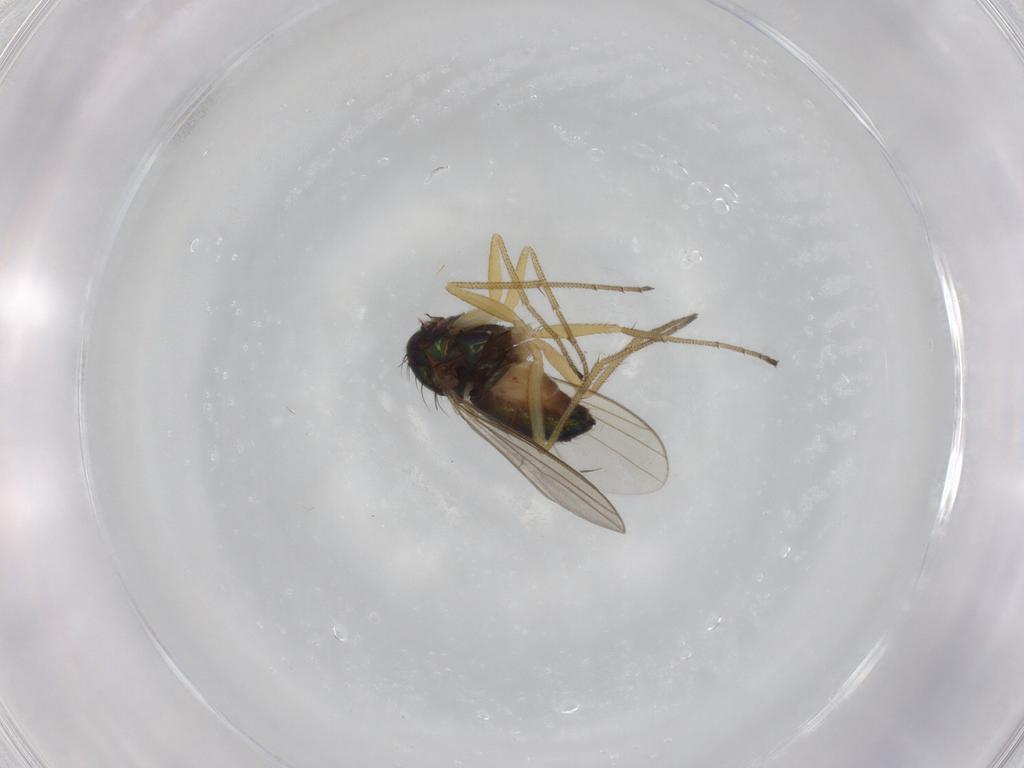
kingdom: Animalia
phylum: Arthropoda
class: Insecta
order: Diptera
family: Dolichopodidae
